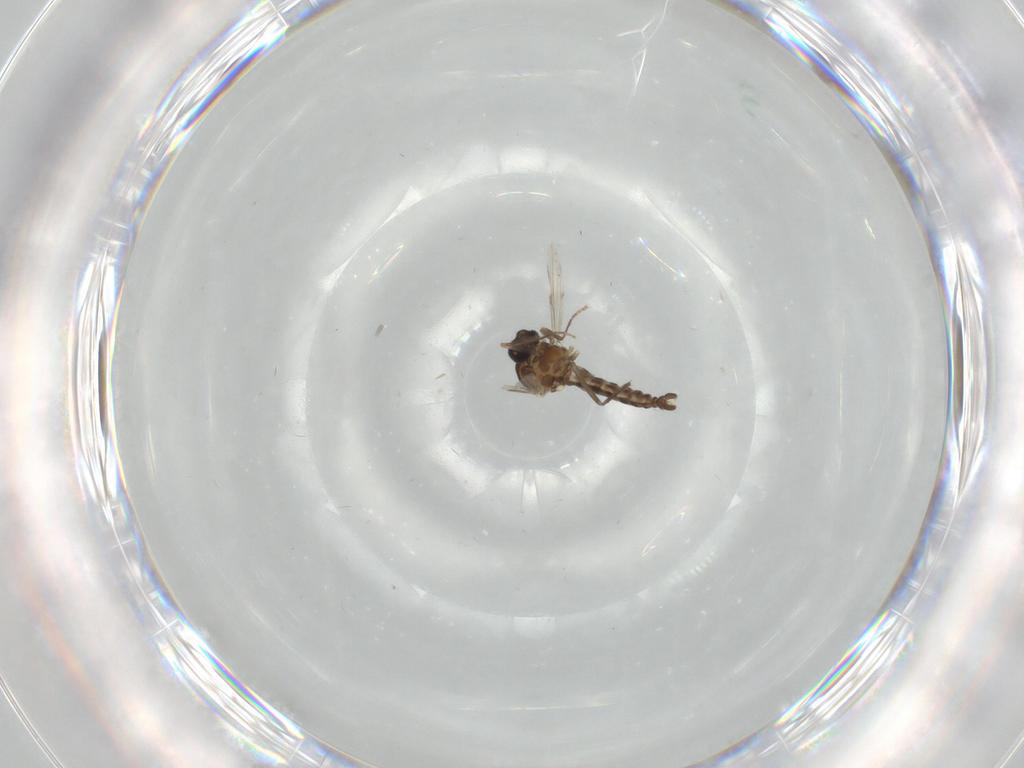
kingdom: Animalia
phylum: Arthropoda
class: Insecta
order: Diptera
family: Ceratopogonidae
